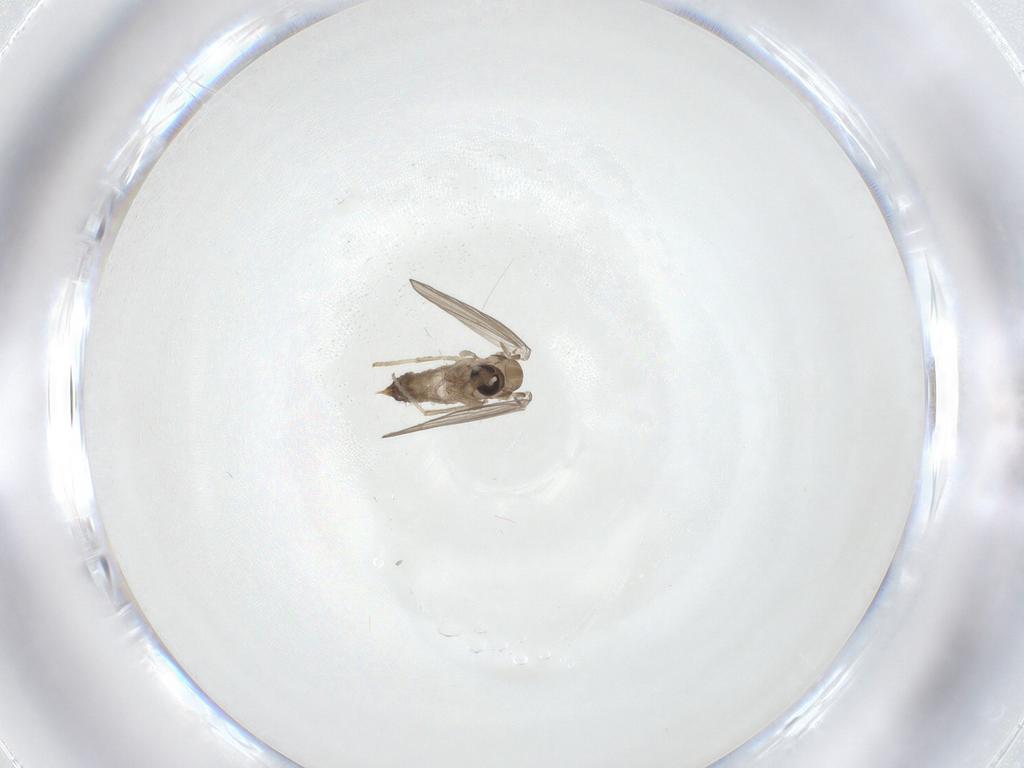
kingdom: Animalia
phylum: Arthropoda
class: Insecta
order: Diptera
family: Psychodidae
